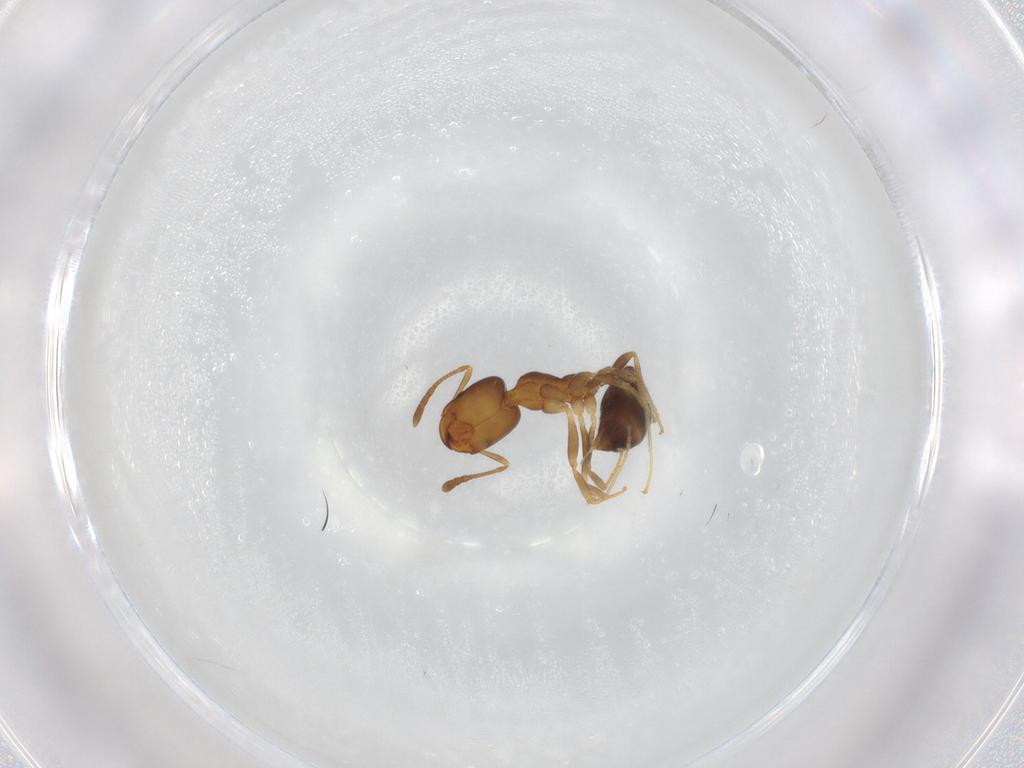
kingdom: Animalia
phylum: Arthropoda
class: Insecta
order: Hymenoptera
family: Formicidae
